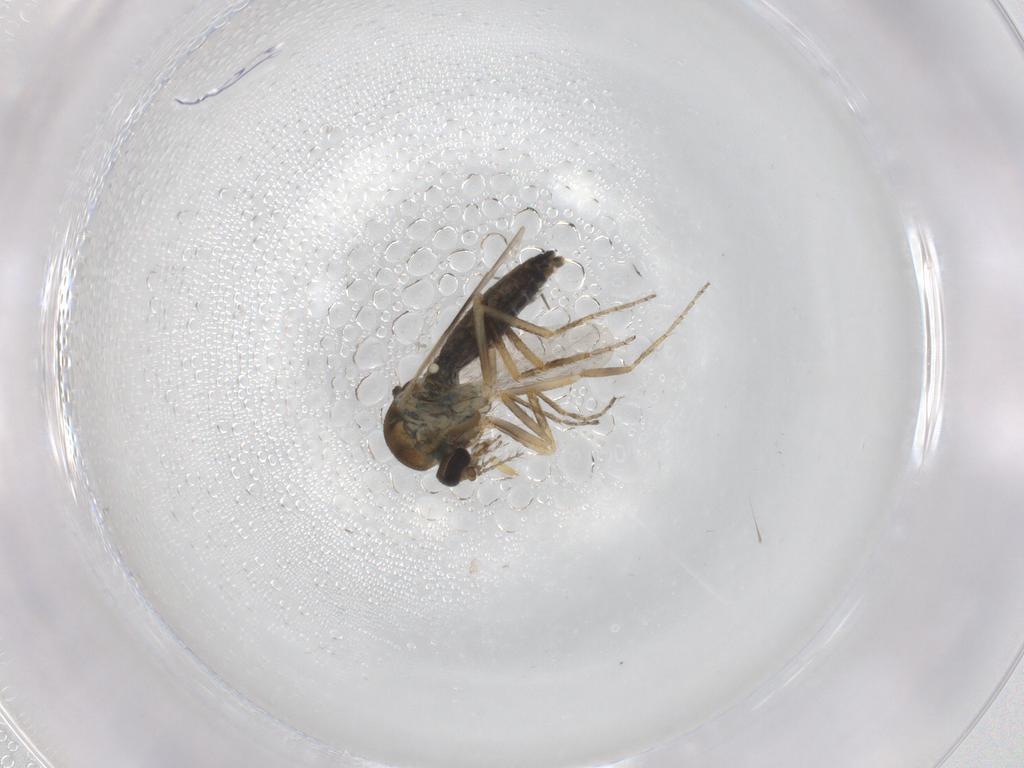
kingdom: Animalia
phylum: Arthropoda
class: Insecta
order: Diptera
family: Sciaridae
